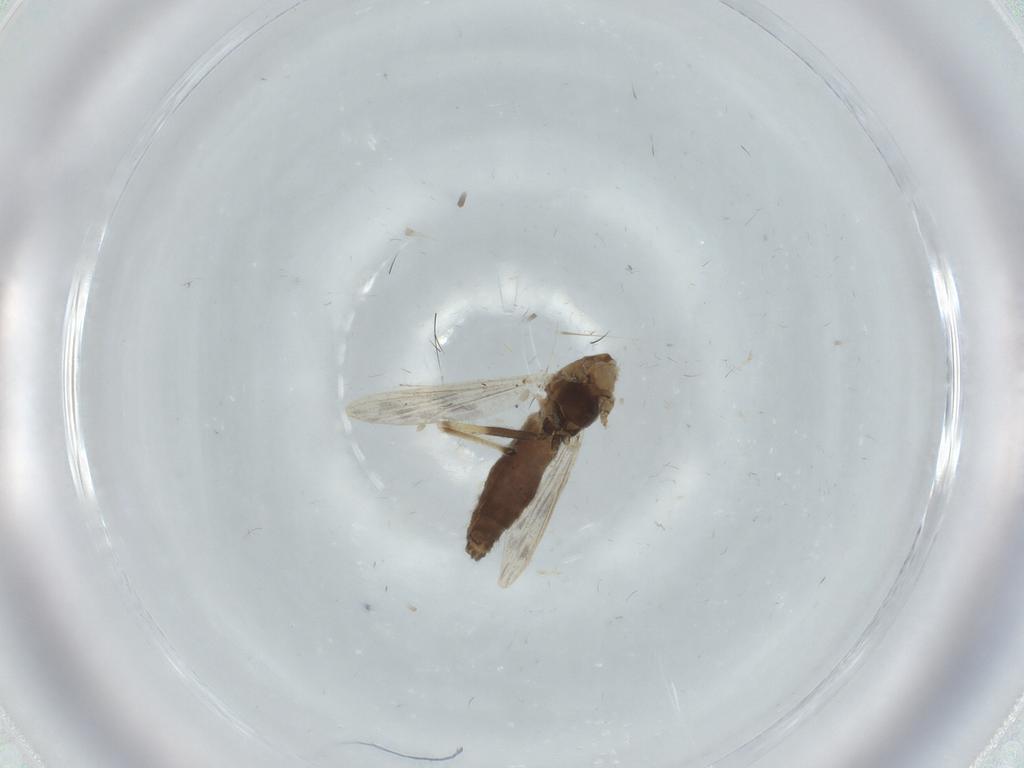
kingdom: Animalia
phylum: Arthropoda
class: Insecta
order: Diptera
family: Chironomidae
